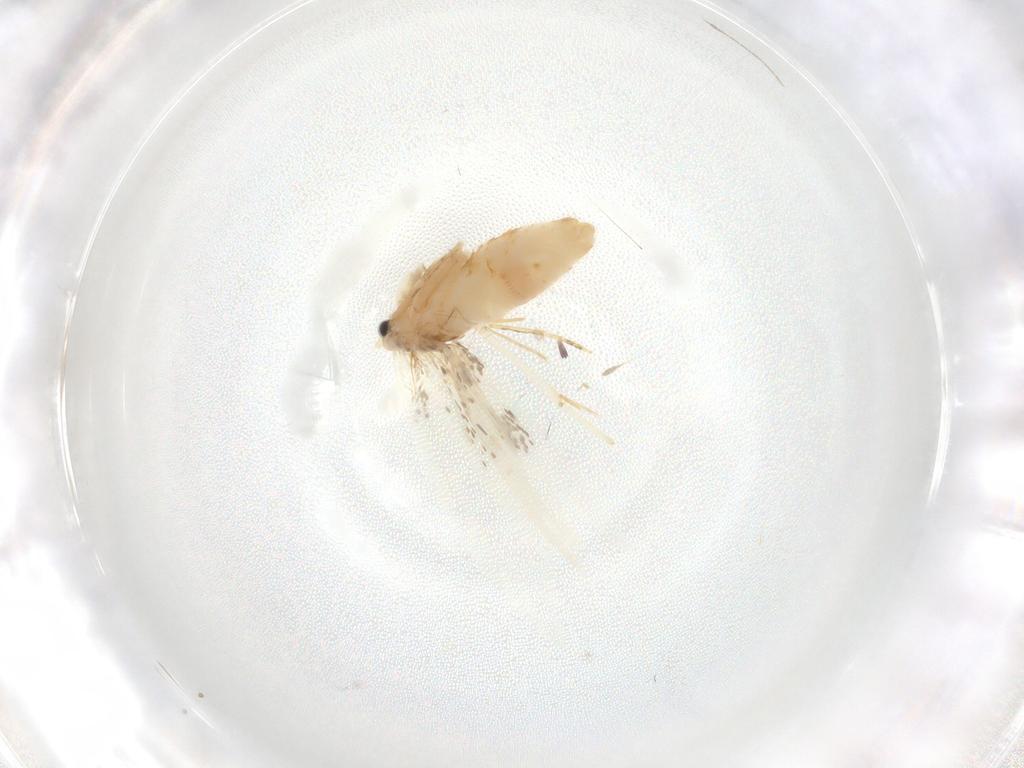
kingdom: Animalia
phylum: Arthropoda
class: Insecta
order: Lepidoptera
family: Incurvariidae
